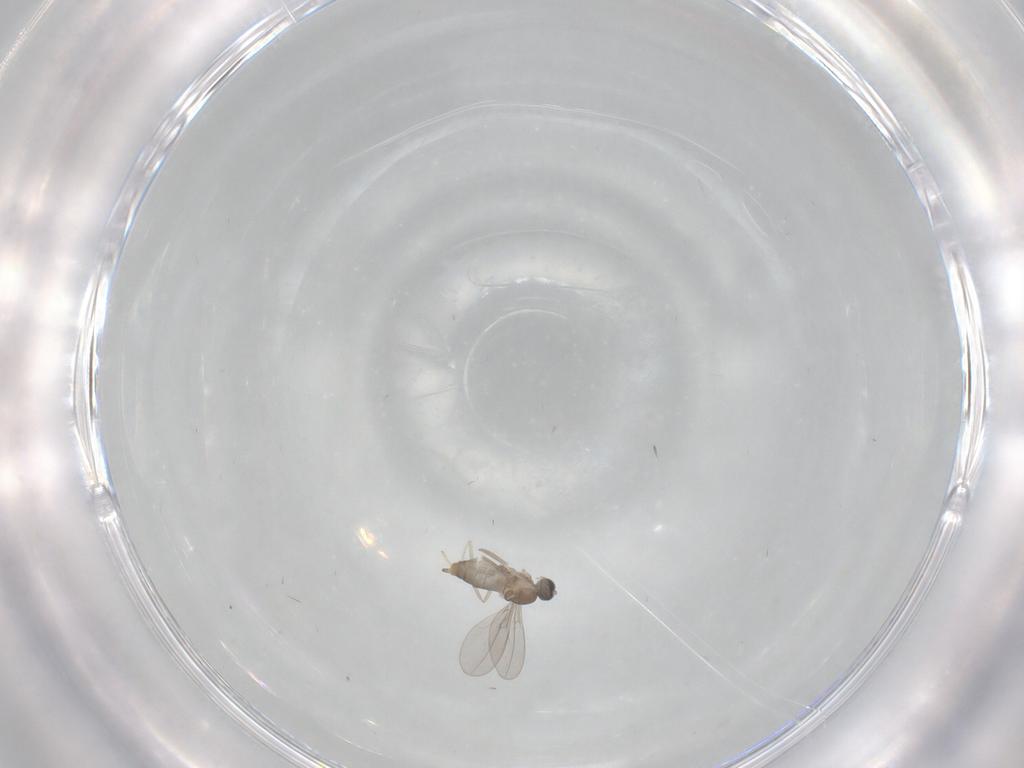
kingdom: Animalia
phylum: Arthropoda
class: Insecta
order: Diptera
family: Cecidomyiidae
